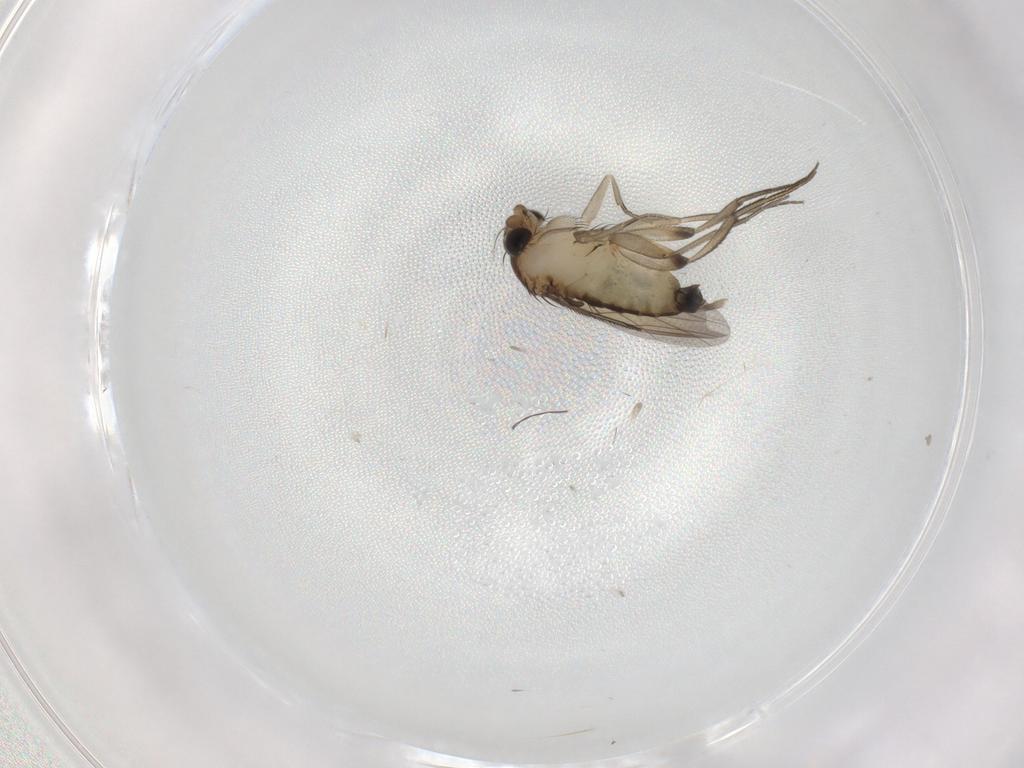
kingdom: Animalia
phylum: Arthropoda
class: Insecta
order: Diptera
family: Phoridae
